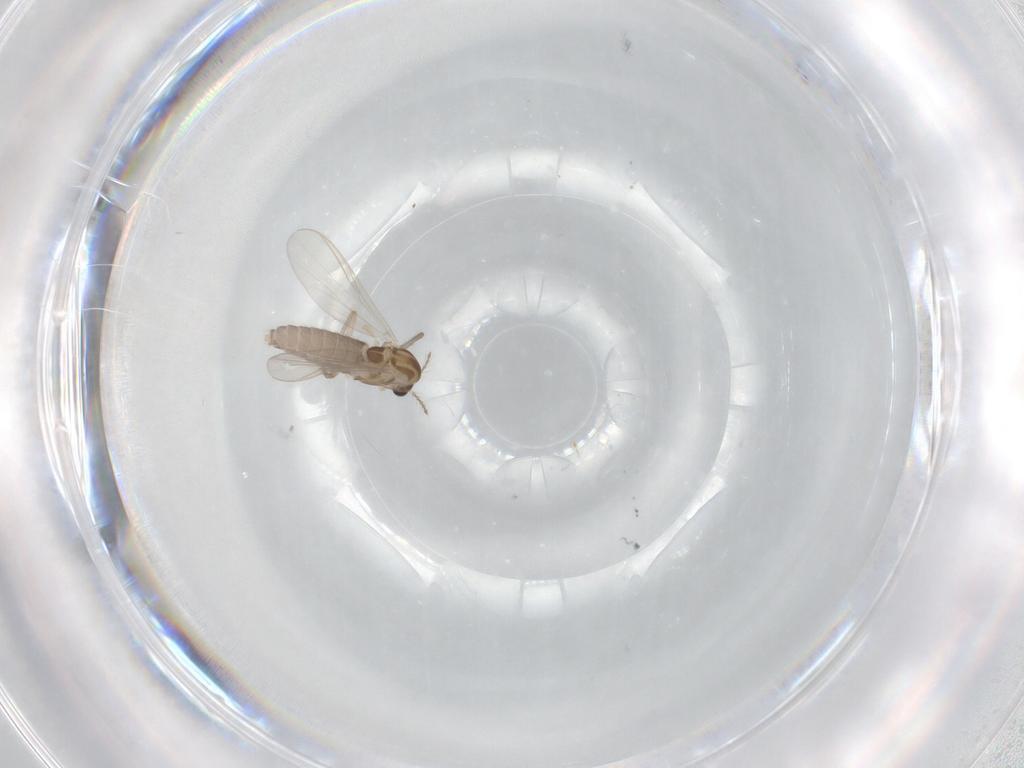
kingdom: Animalia
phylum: Arthropoda
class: Insecta
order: Diptera
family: Chironomidae
